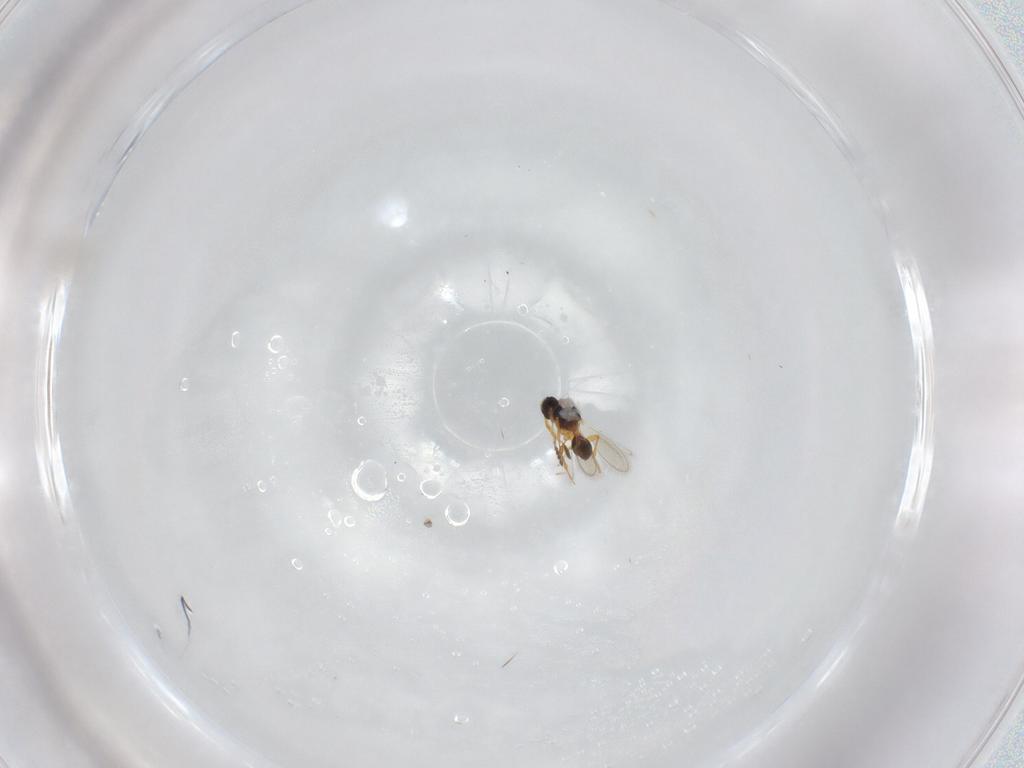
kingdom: Animalia
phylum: Arthropoda
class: Insecta
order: Hymenoptera
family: Platygastridae
